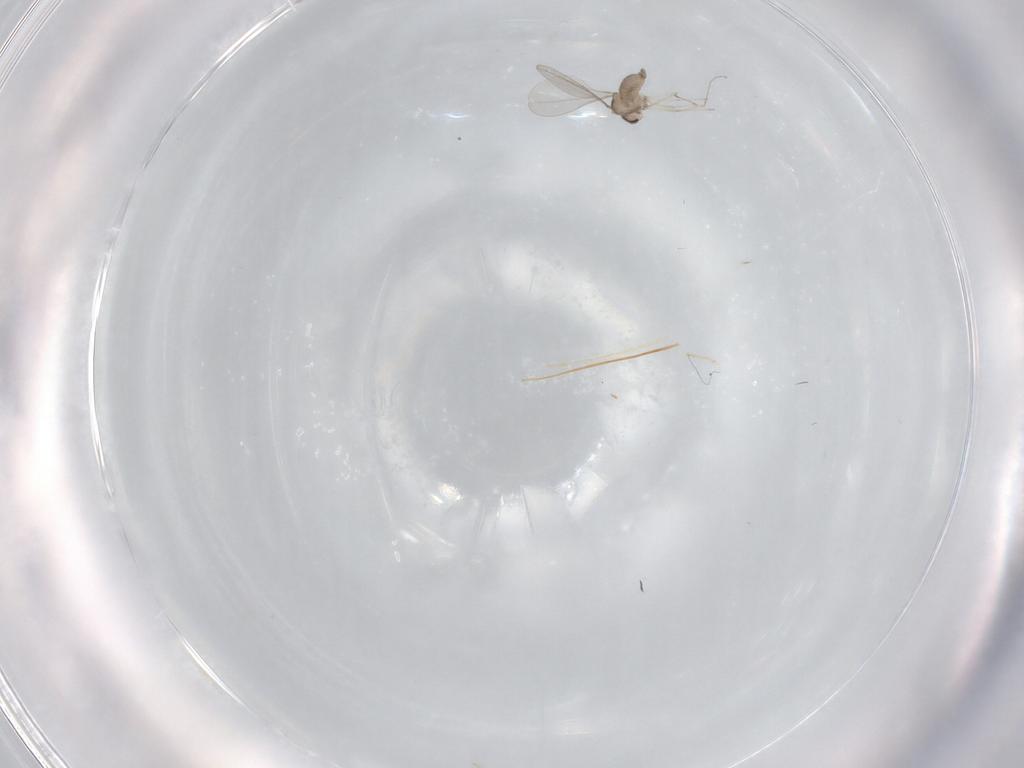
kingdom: Animalia
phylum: Arthropoda
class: Insecta
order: Diptera
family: Cecidomyiidae
